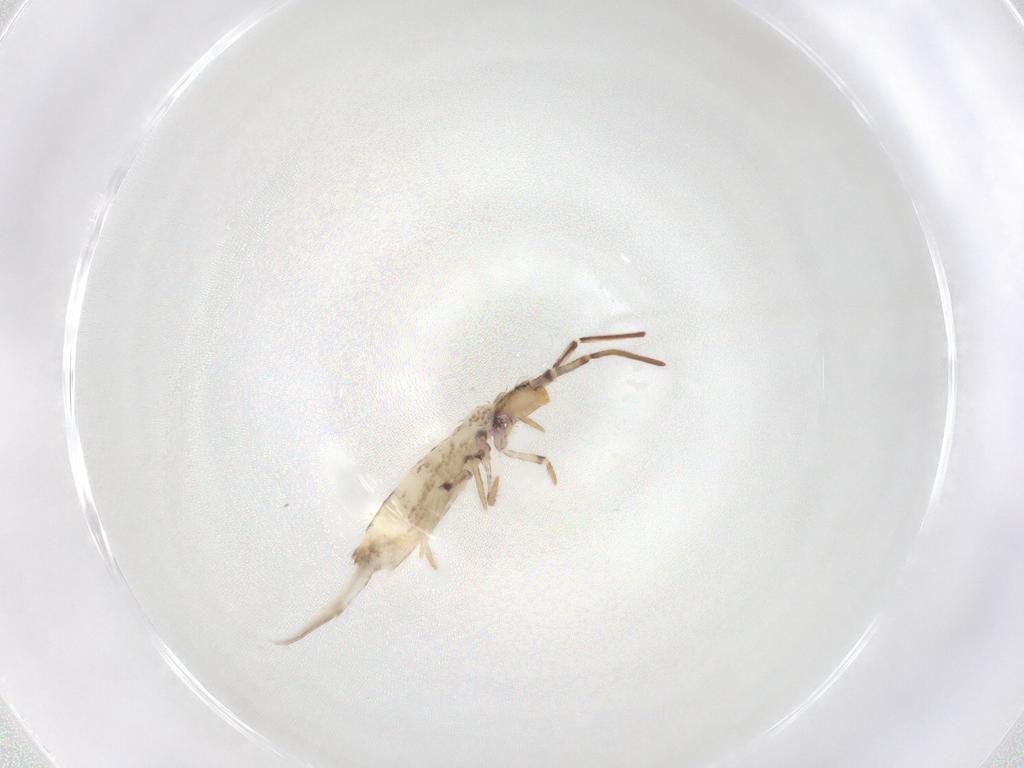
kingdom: Animalia
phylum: Arthropoda
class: Collembola
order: Entomobryomorpha
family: Entomobryidae
